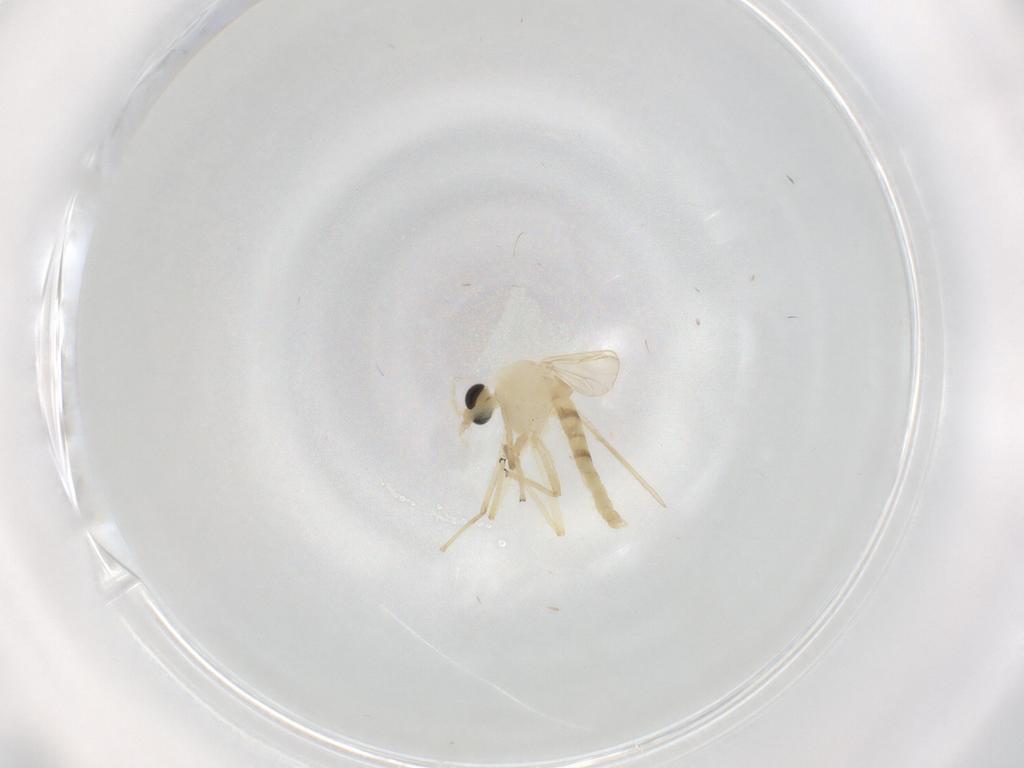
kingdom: Animalia
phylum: Arthropoda
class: Insecta
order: Diptera
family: Chironomidae
